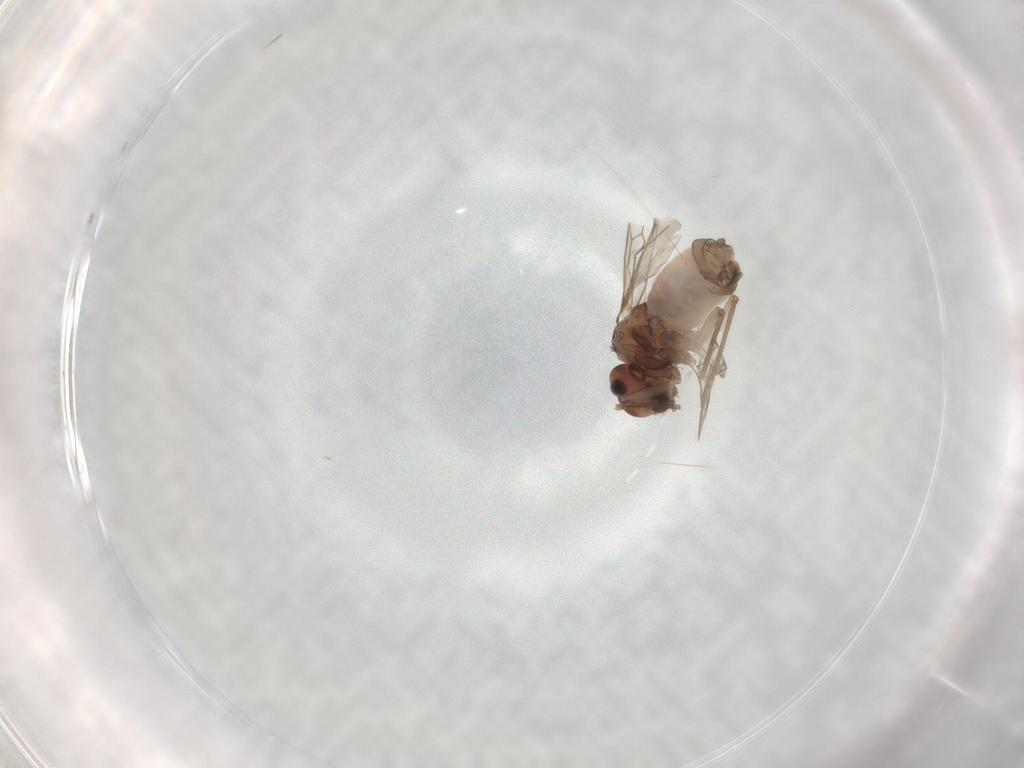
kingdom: Animalia
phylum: Arthropoda
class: Insecta
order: Psocodea
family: Peripsocidae
